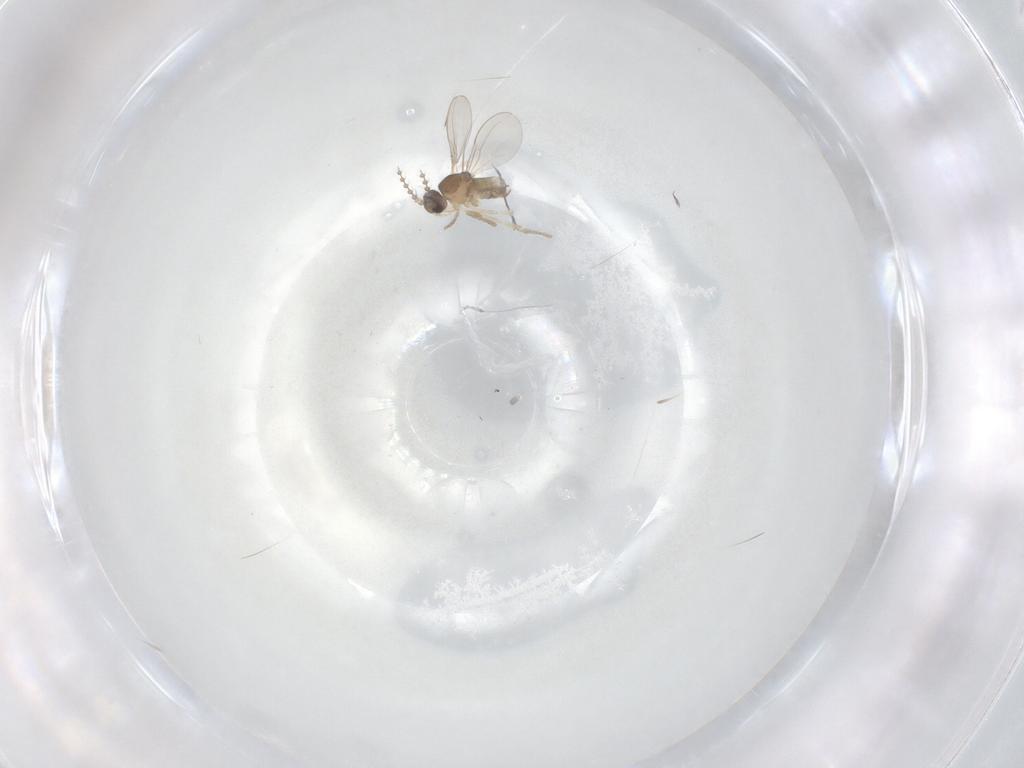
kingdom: Animalia
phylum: Arthropoda
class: Insecta
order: Diptera
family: Cecidomyiidae
